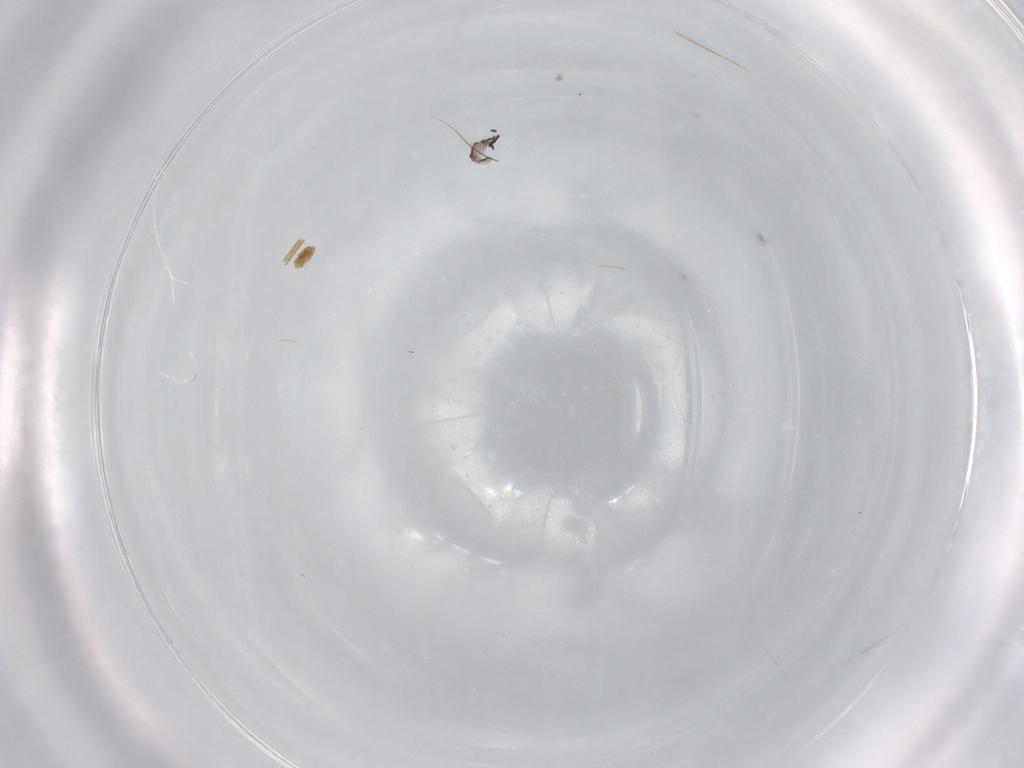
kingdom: Animalia
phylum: Arthropoda
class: Collembola
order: Entomobryomorpha
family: Entomobryidae
